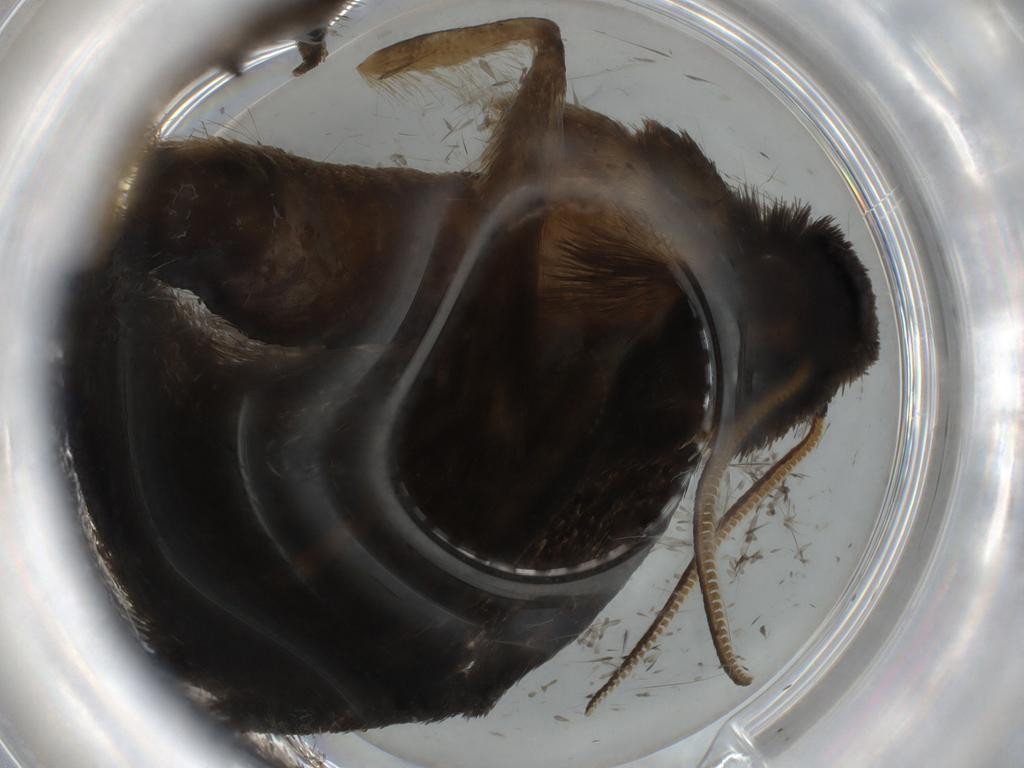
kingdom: Animalia
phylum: Arthropoda
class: Insecta
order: Lepidoptera
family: Tineidae
